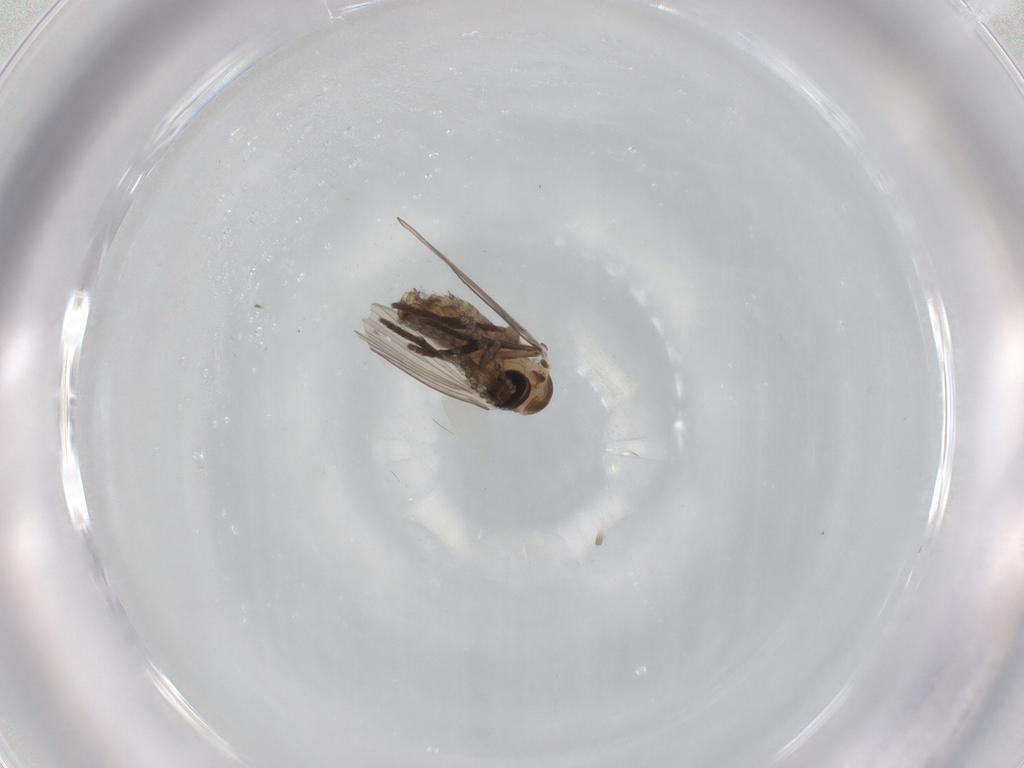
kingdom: Animalia
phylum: Arthropoda
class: Insecta
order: Diptera
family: Psychodidae
